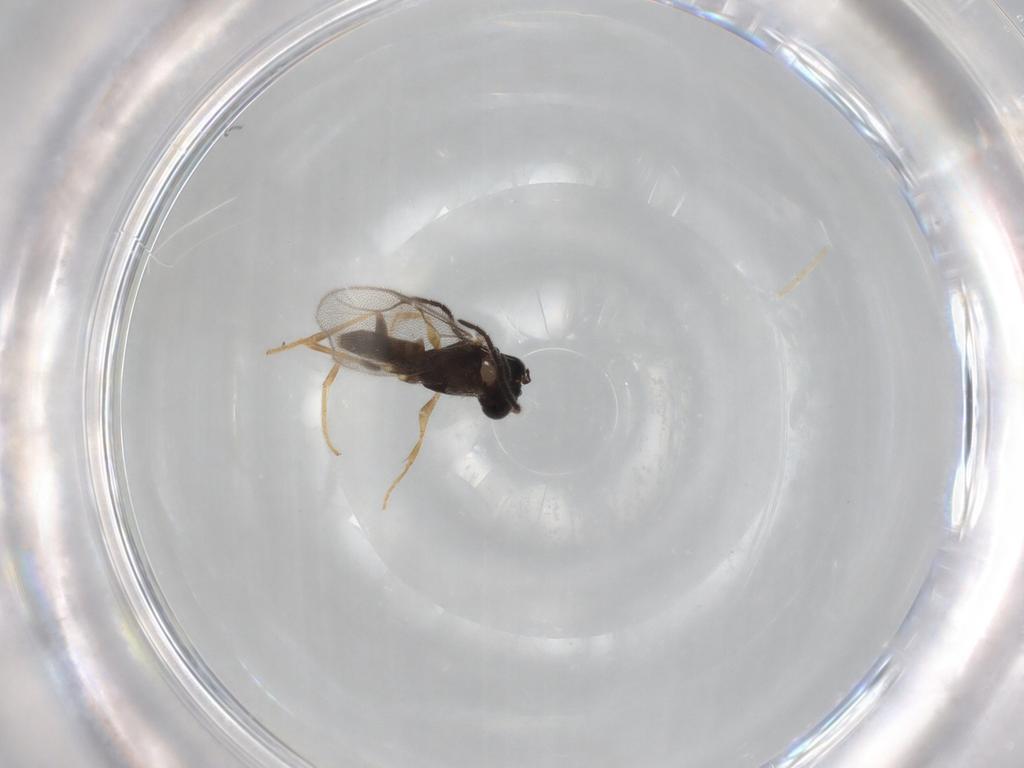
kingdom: Animalia
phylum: Arthropoda
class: Insecta
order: Hymenoptera
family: Dryinidae
